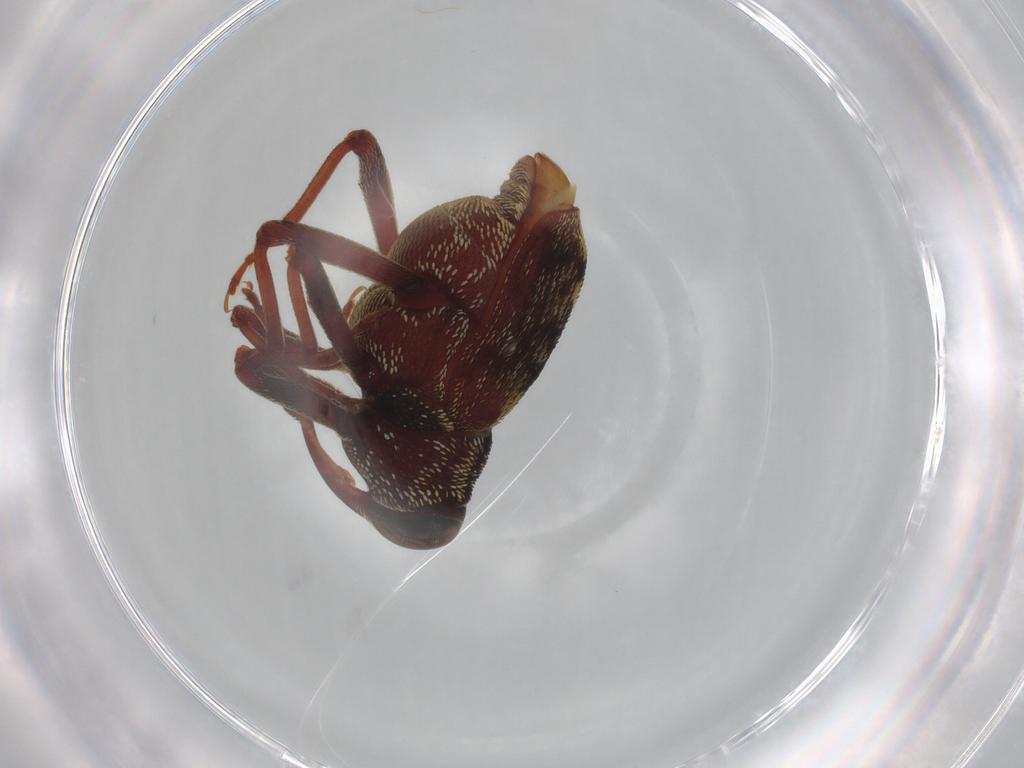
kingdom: Animalia
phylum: Arthropoda
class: Insecta
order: Coleoptera
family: Curculionidae
